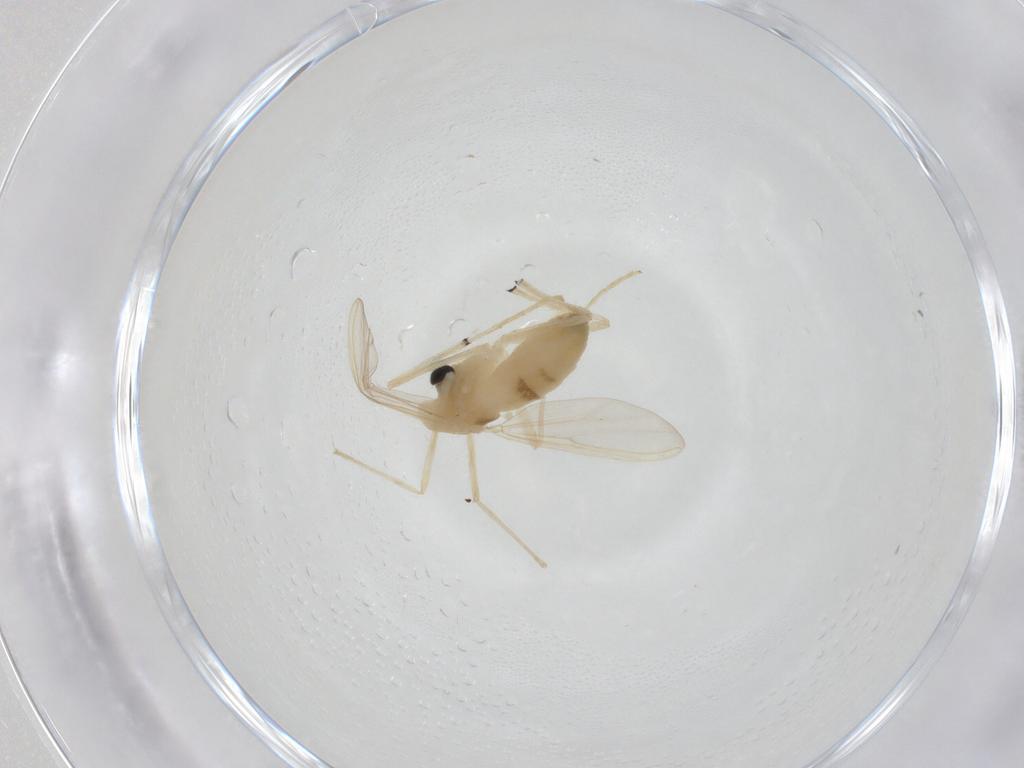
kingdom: Animalia
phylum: Arthropoda
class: Insecta
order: Diptera
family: Chironomidae
